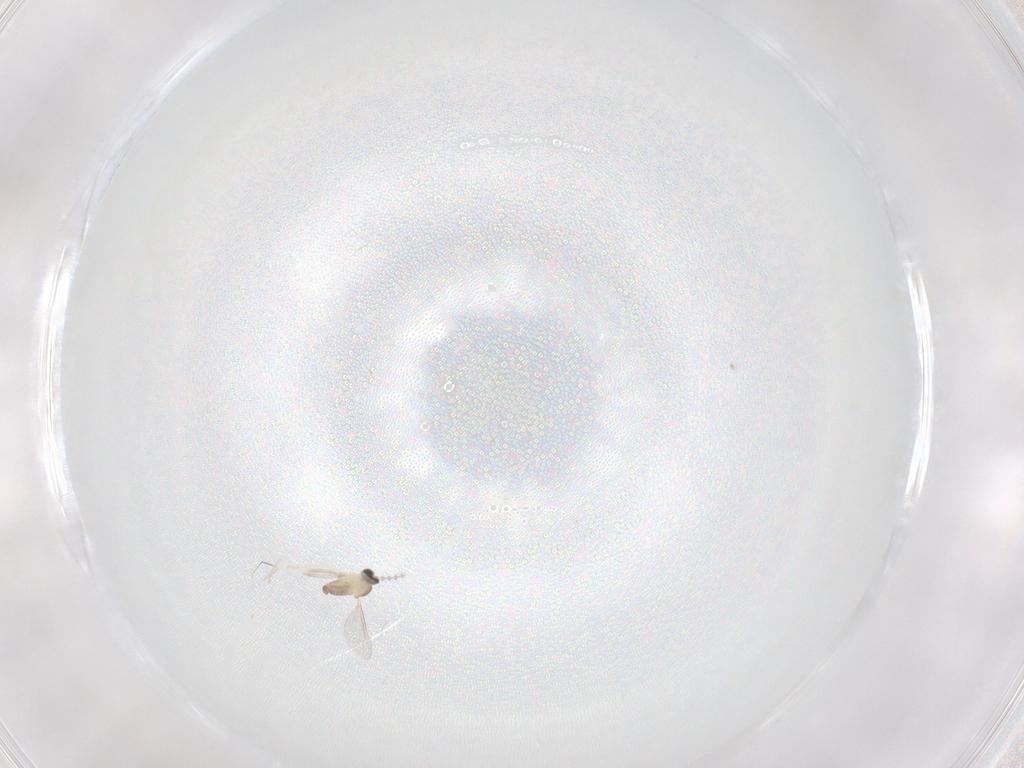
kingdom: Animalia
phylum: Arthropoda
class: Insecta
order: Diptera
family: Cecidomyiidae
